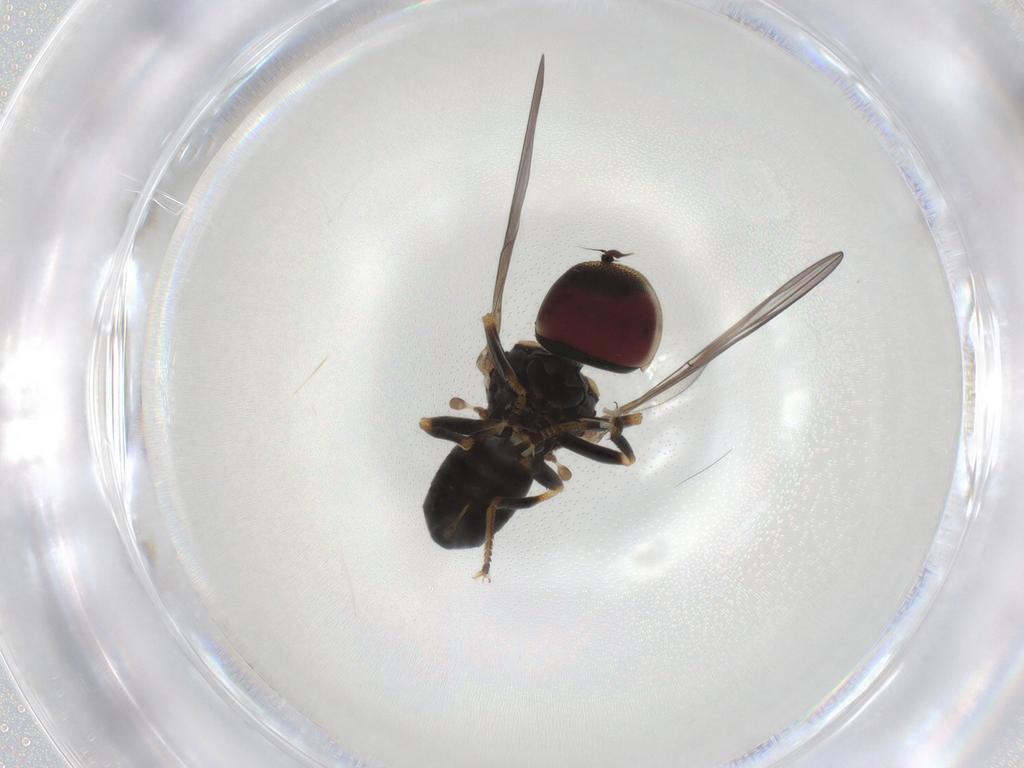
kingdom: Animalia
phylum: Arthropoda
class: Insecta
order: Diptera
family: Pipunculidae
